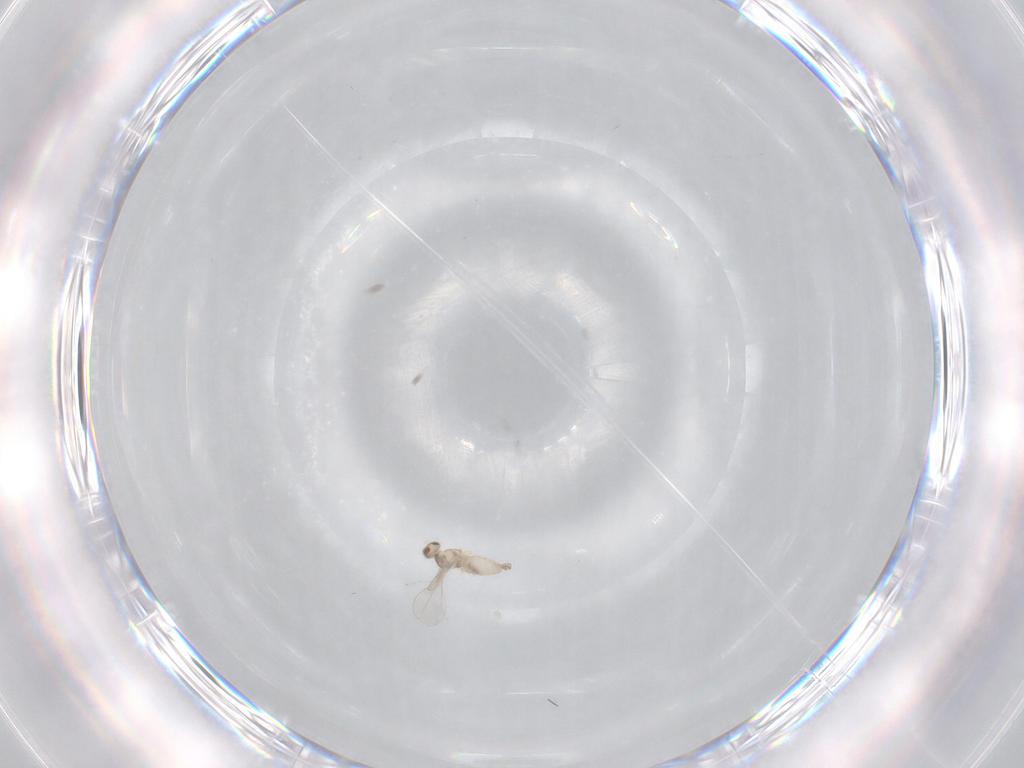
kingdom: Animalia
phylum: Arthropoda
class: Insecta
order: Diptera
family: Cecidomyiidae
